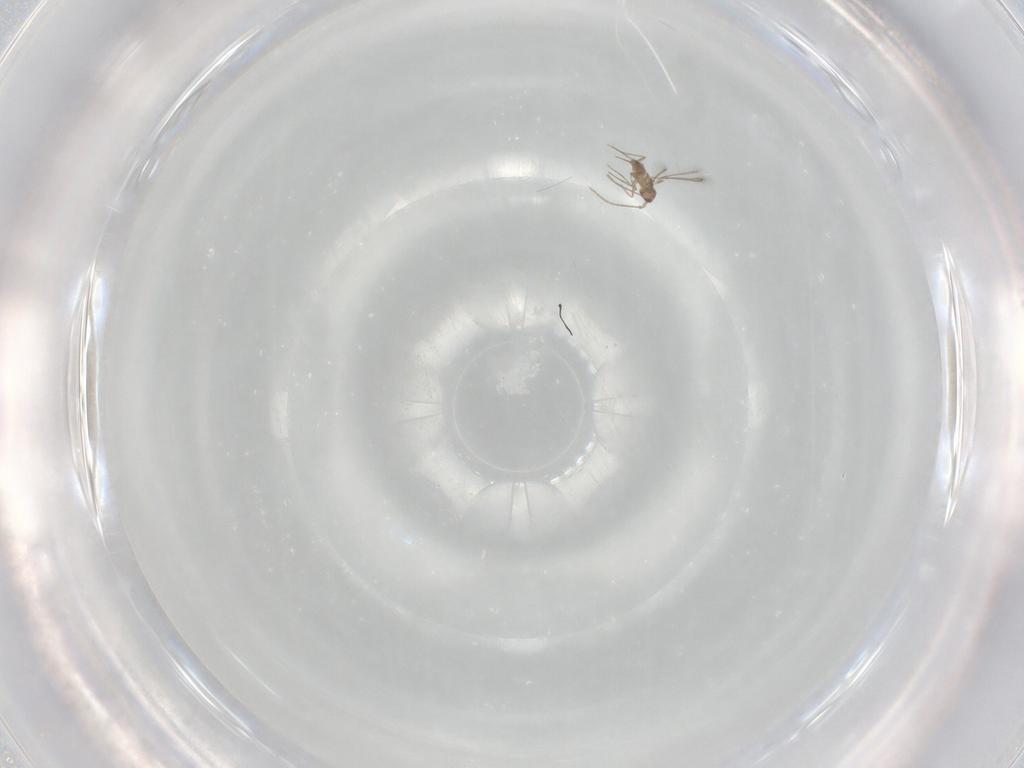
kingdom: Animalia
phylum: Arthropoda
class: Insecta
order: Hymenoptera
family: Mymaridae
